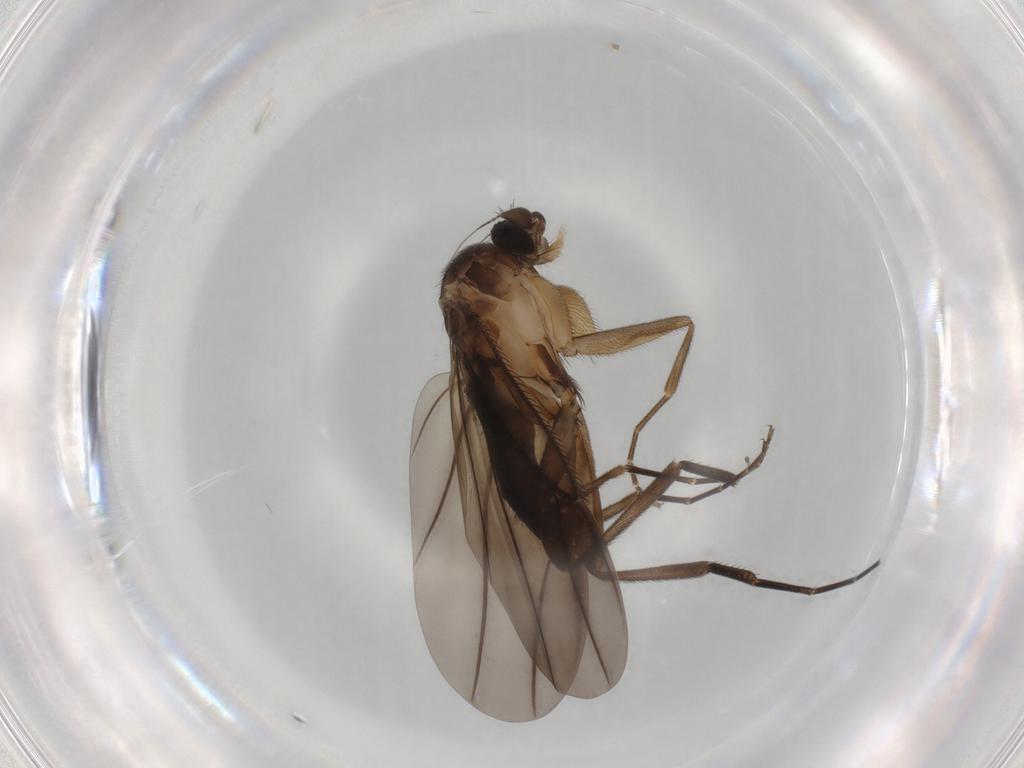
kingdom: Animalia
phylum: Arthropoda
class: Insecta
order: Diptera
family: Phoridae
